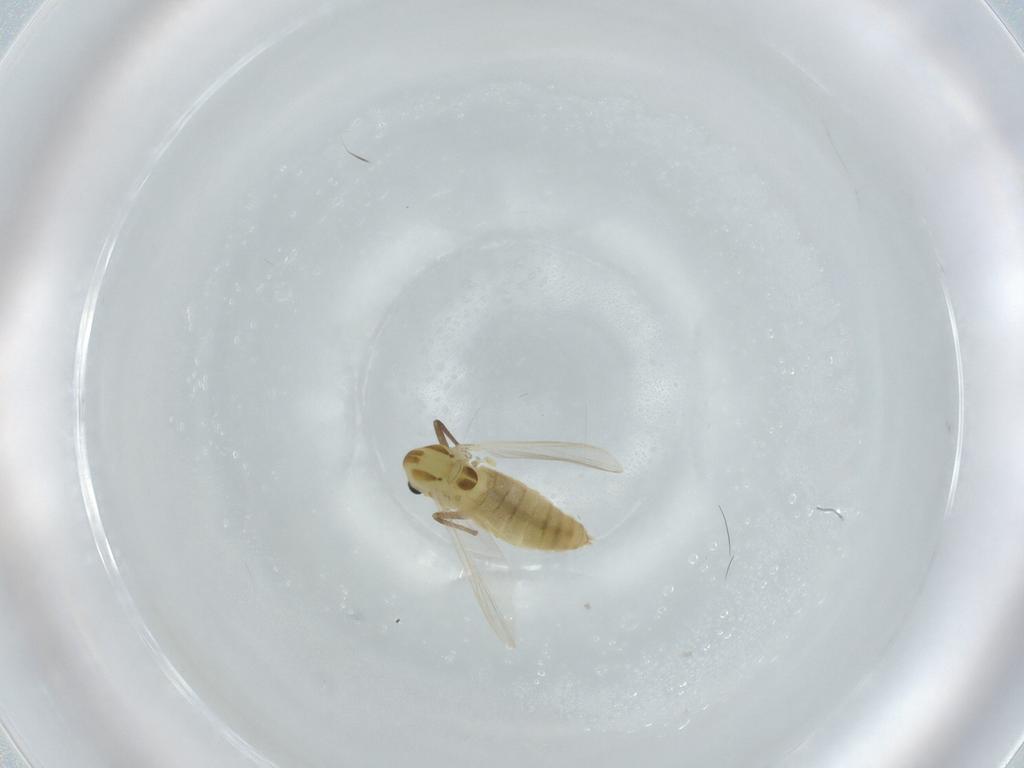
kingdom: Animalia
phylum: Arthropoda
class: Insecta
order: Diptera
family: Chironomidae
